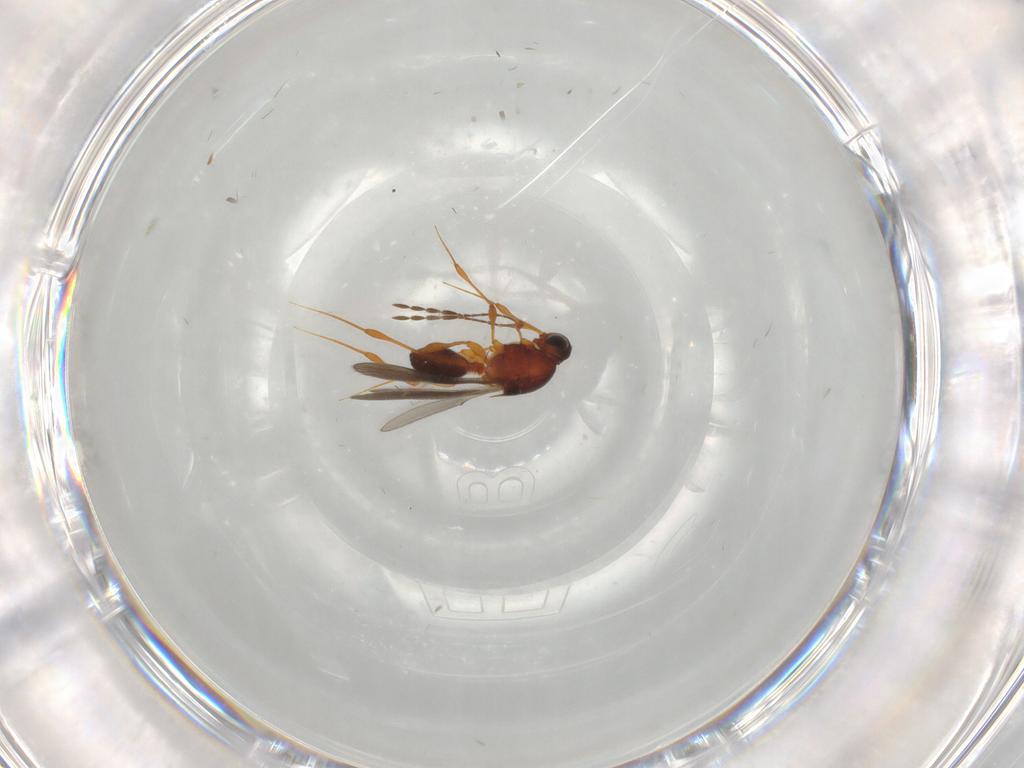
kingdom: Animalia
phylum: Arthropoda
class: Insecta
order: Hymenoptera
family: Platygastridae
